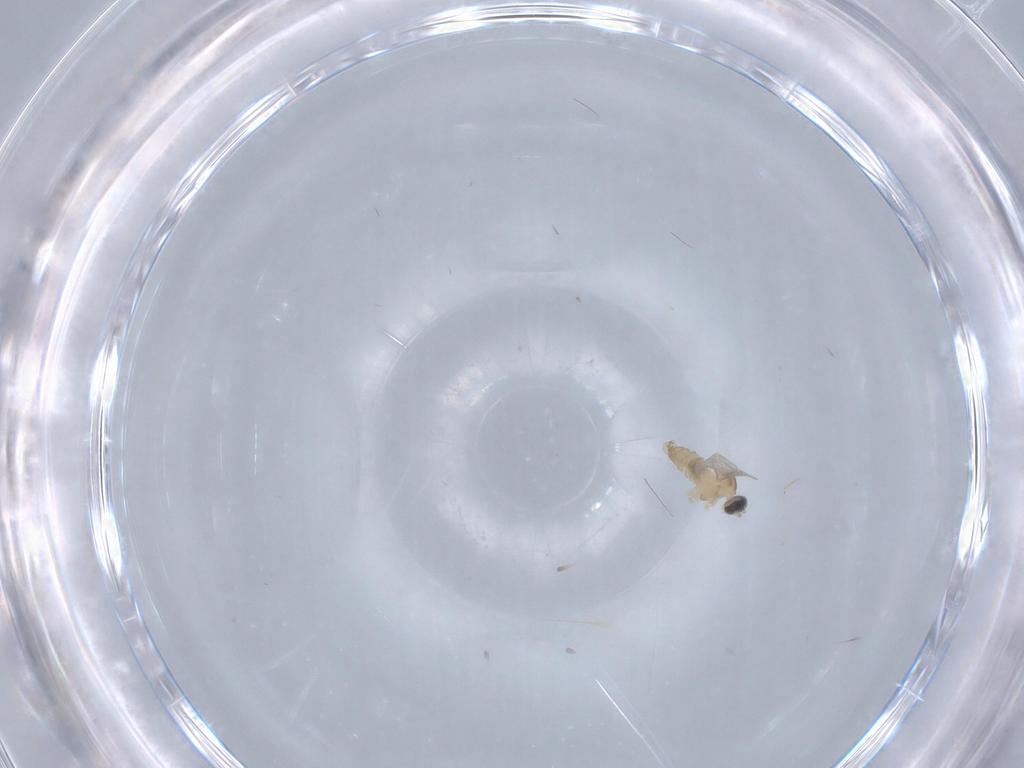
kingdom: Animalia
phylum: Arthropoda
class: Insecta
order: Diptera
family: Cecidomyiidae
